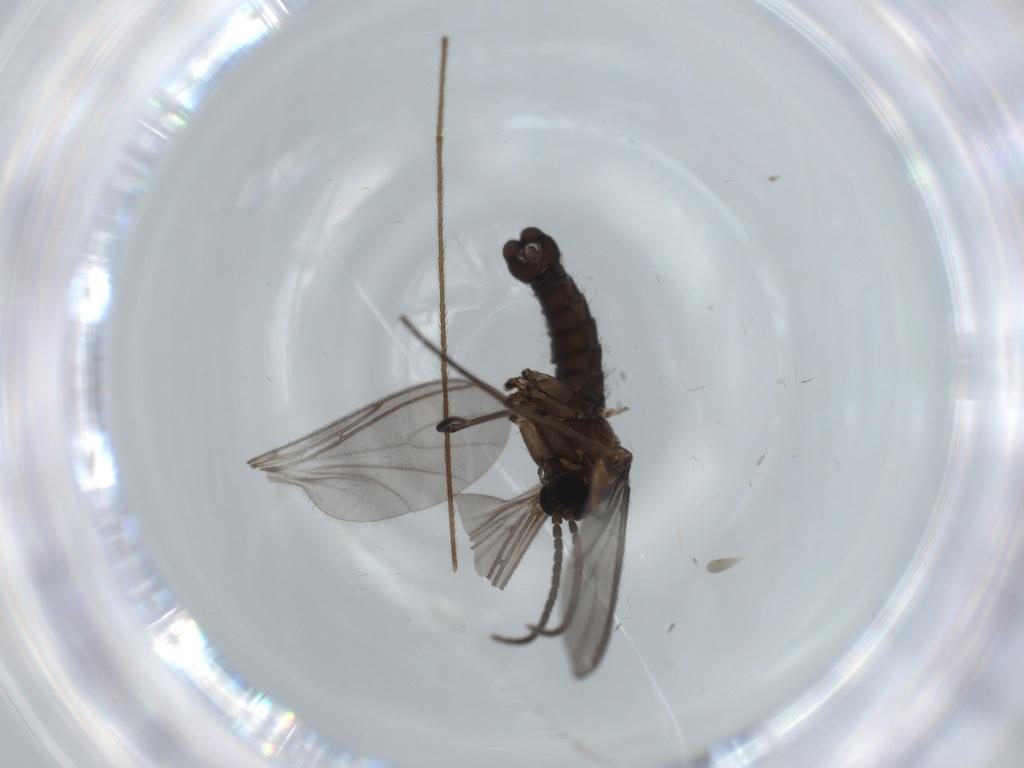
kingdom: Animalia
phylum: Arthropoda
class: Insecta
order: Diptera
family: Sciaridae
